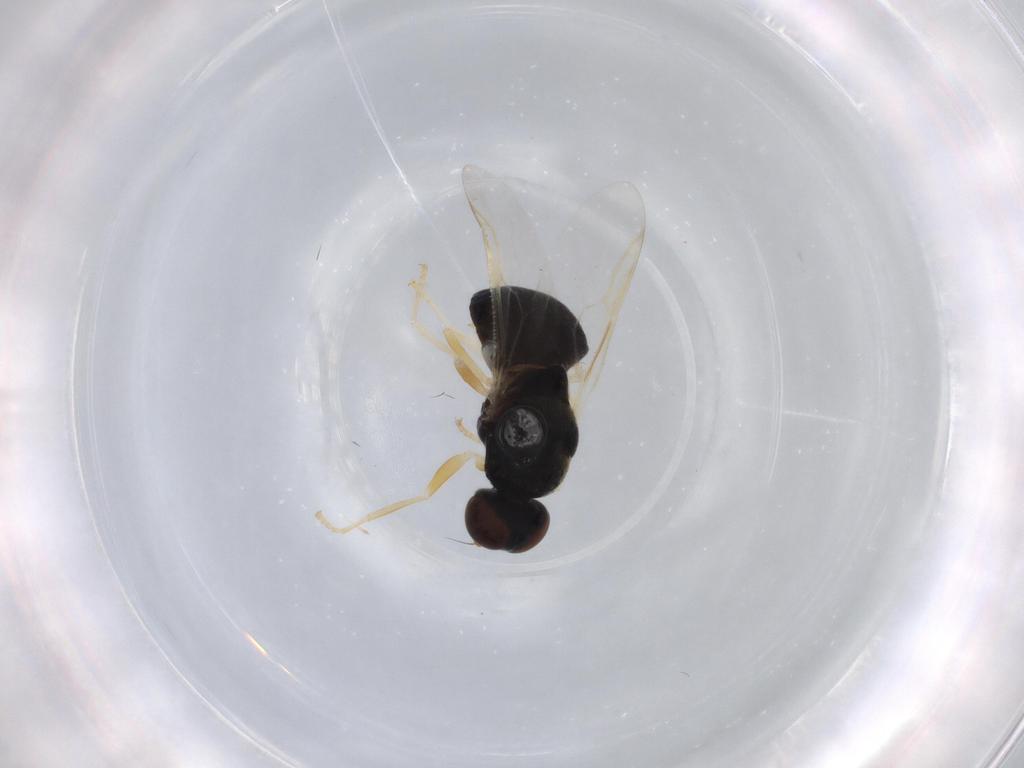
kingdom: Animalia
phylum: Arthropoda
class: Insecta
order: Diptera
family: Stratiomyidae
